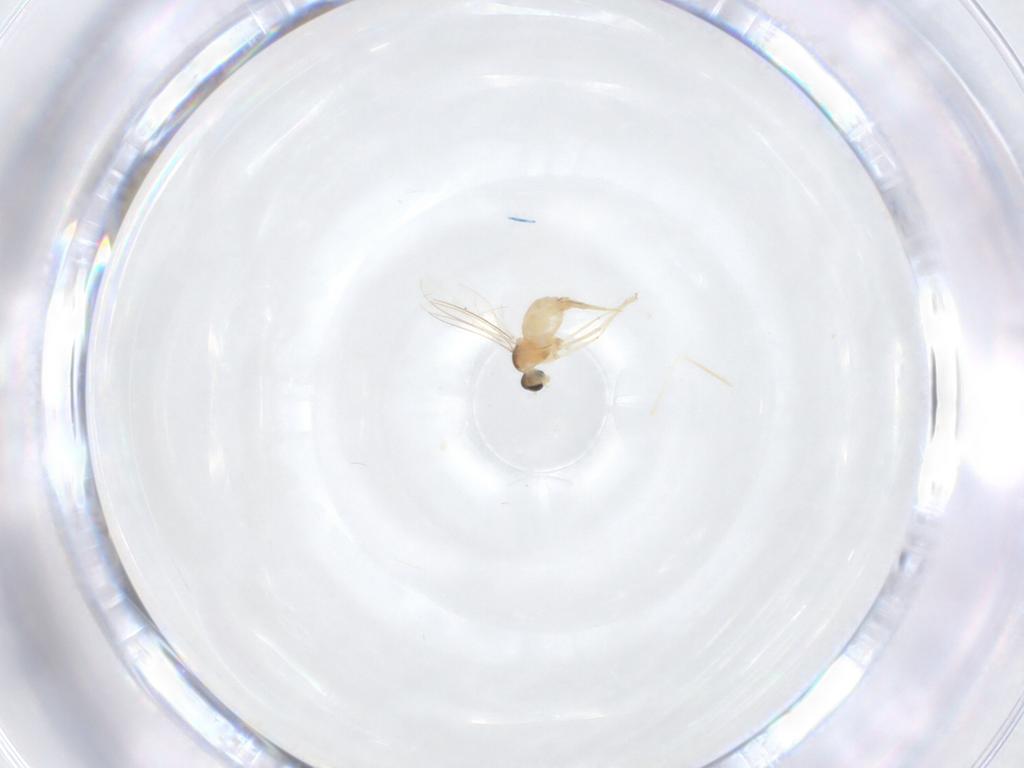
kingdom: Animalia
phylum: Arthropoda
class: Insecta
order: Diptera
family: Cecidomyiidae
